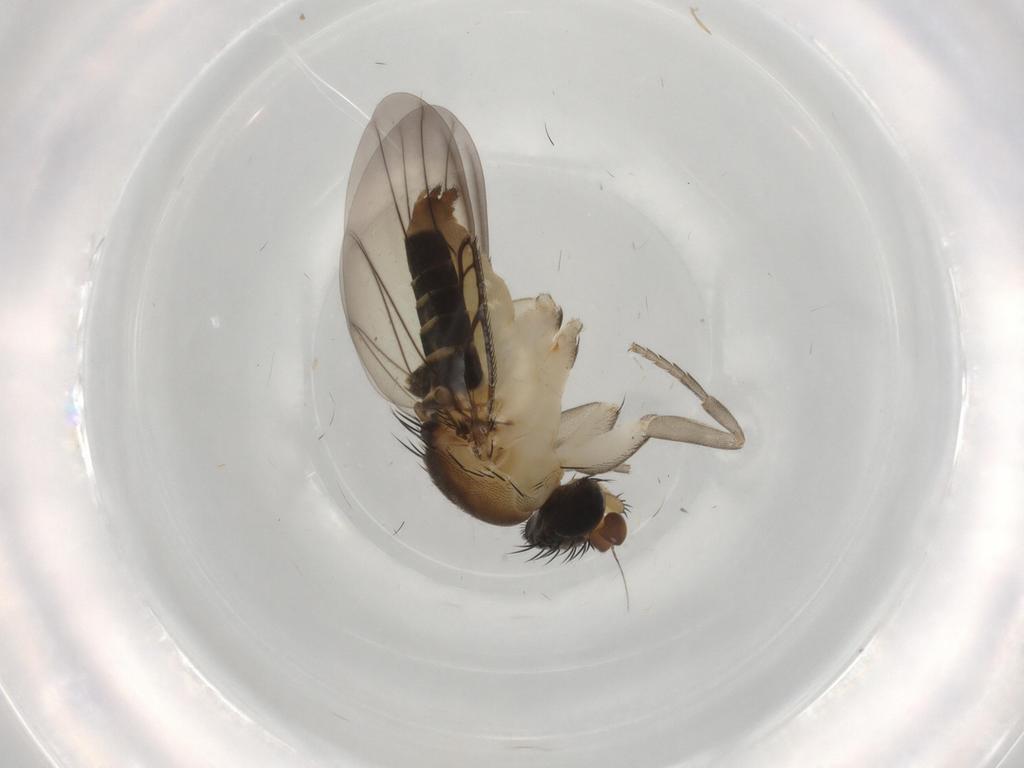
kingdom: Animalia
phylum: Arthropoda
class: Insecta
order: Diptera
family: Phoridae
